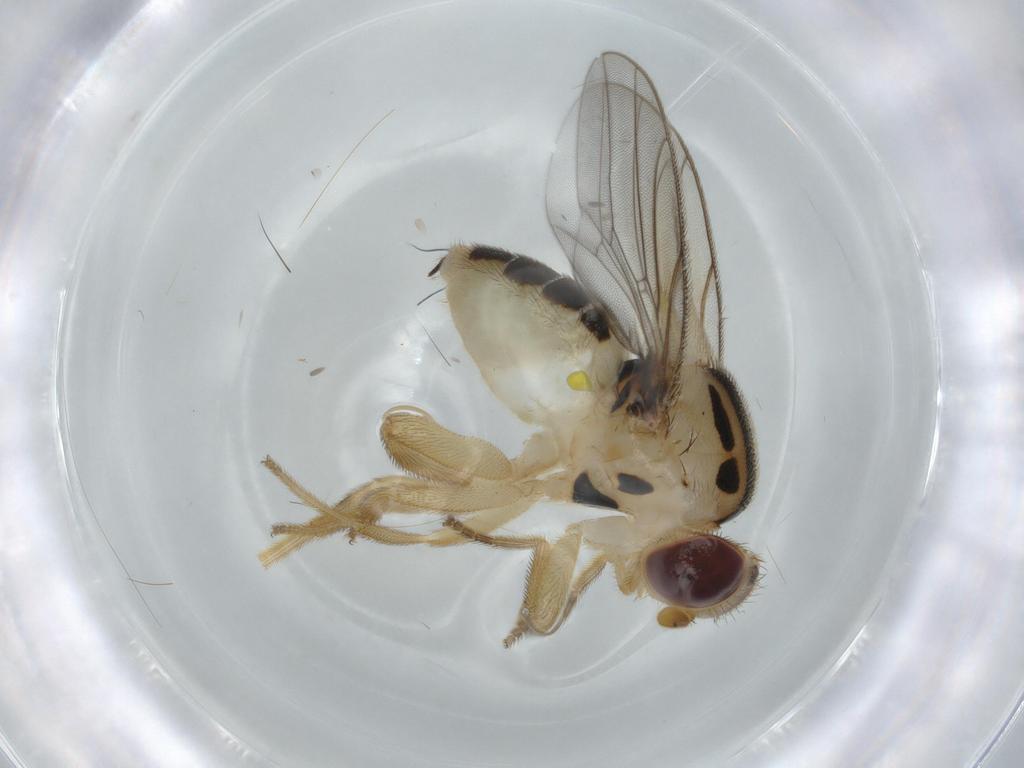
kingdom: Animalia
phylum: Arthropoda
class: Insecta
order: Diptera
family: Chloropidae
